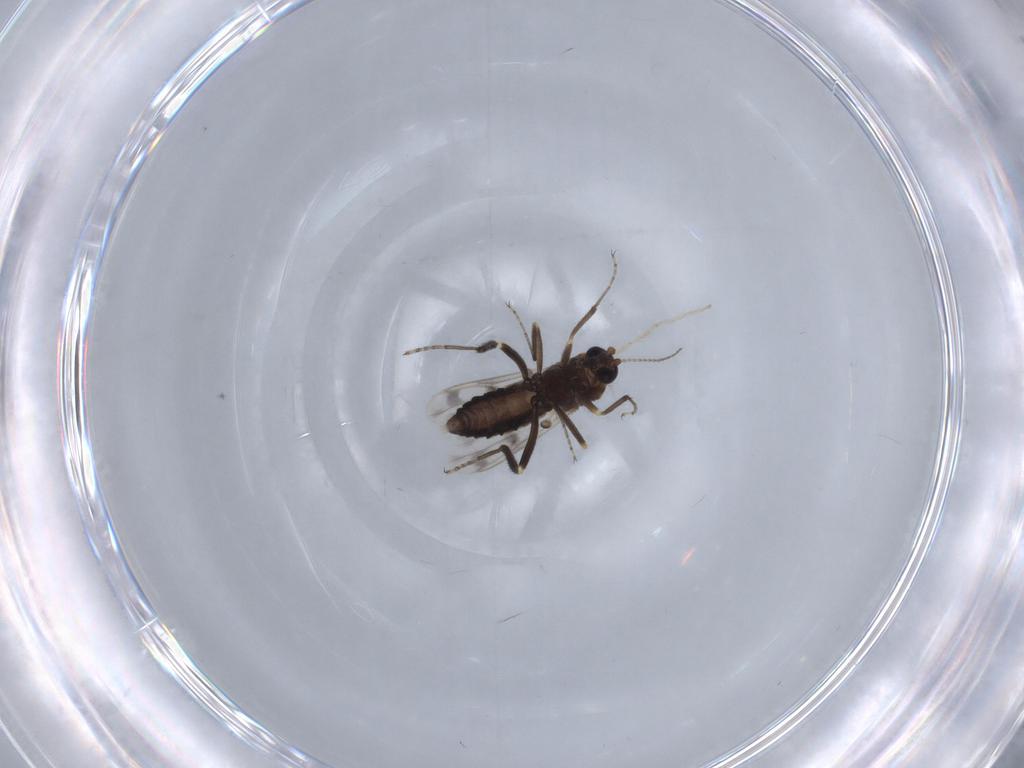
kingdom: Animalia
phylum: Arthropoda
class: Insecta
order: Diptera
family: Ceratopogonidae
